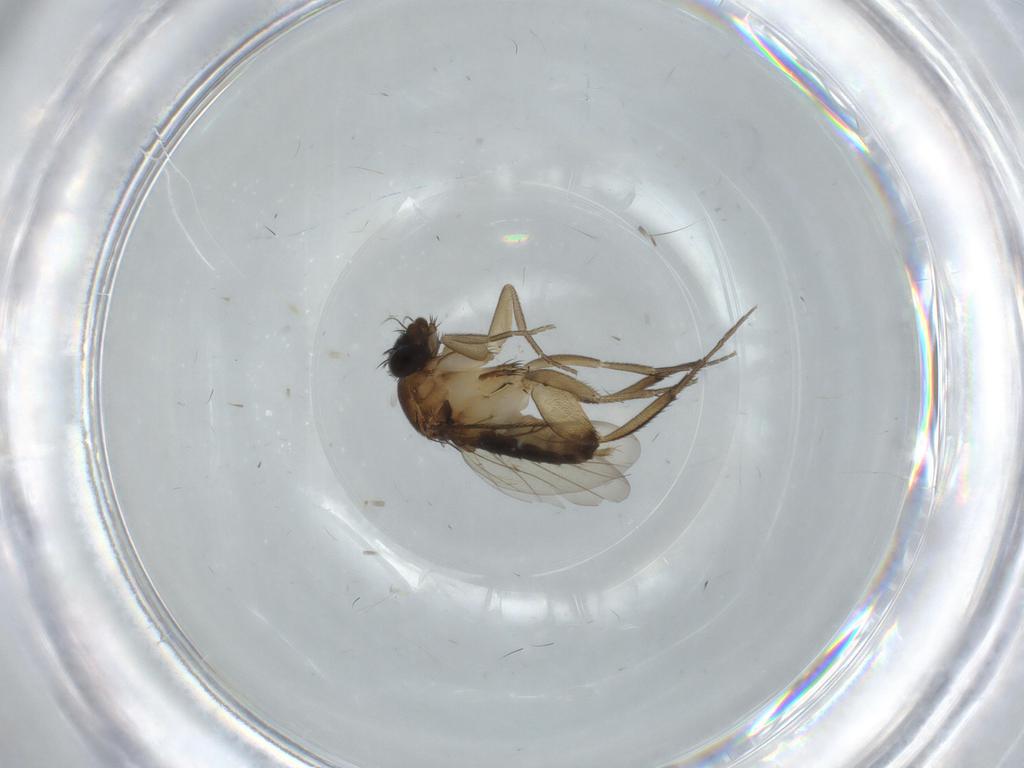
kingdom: Animalia
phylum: Arthropoda
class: Insecta
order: Diptera
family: Phoridae
